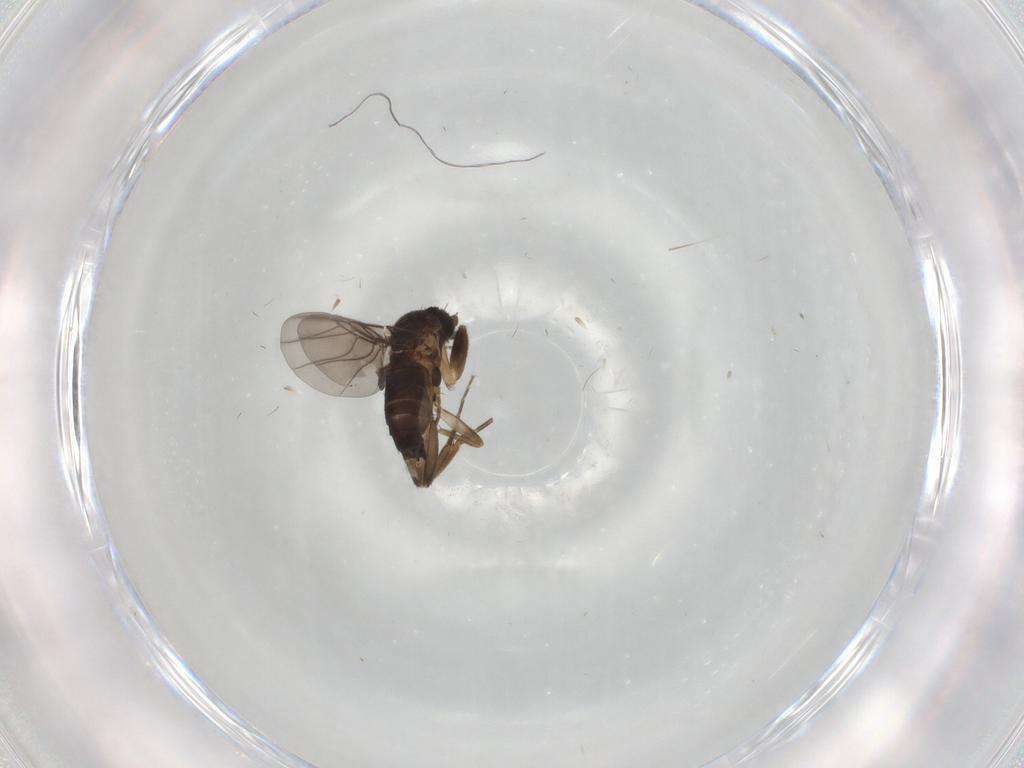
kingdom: Animalia
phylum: Arthropoda
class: Insecta
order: Diptera
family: Phoridae
